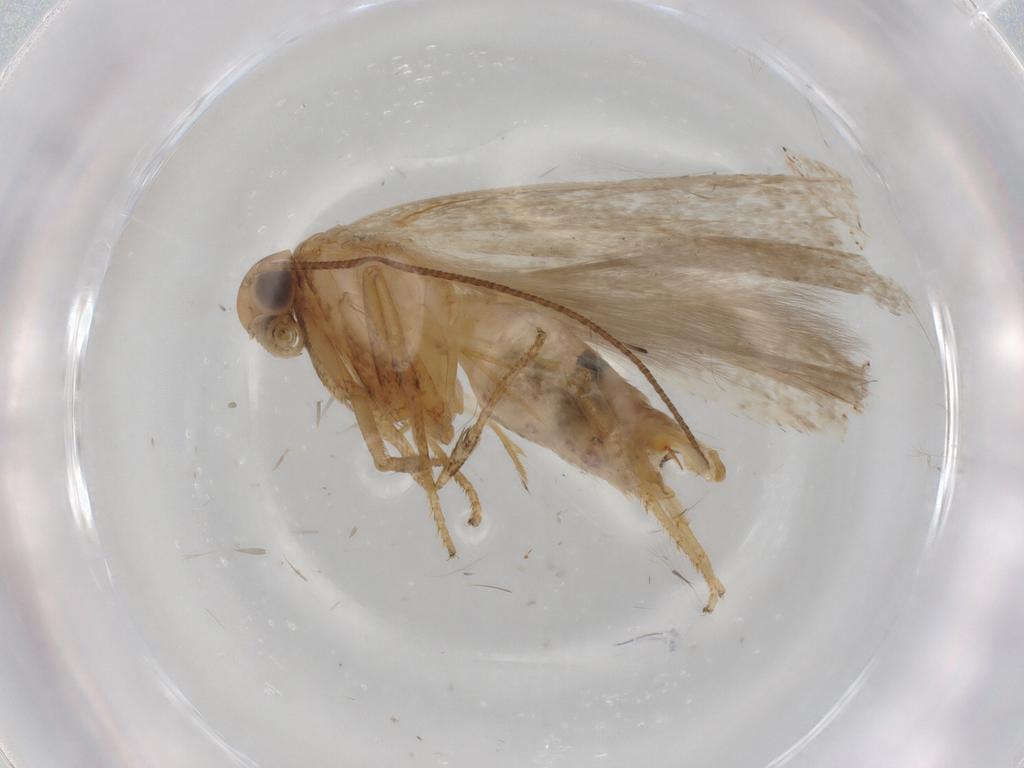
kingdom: Animalia
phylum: Arthropoda
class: Insecta
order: Lepidoptera
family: Gelechiidae
